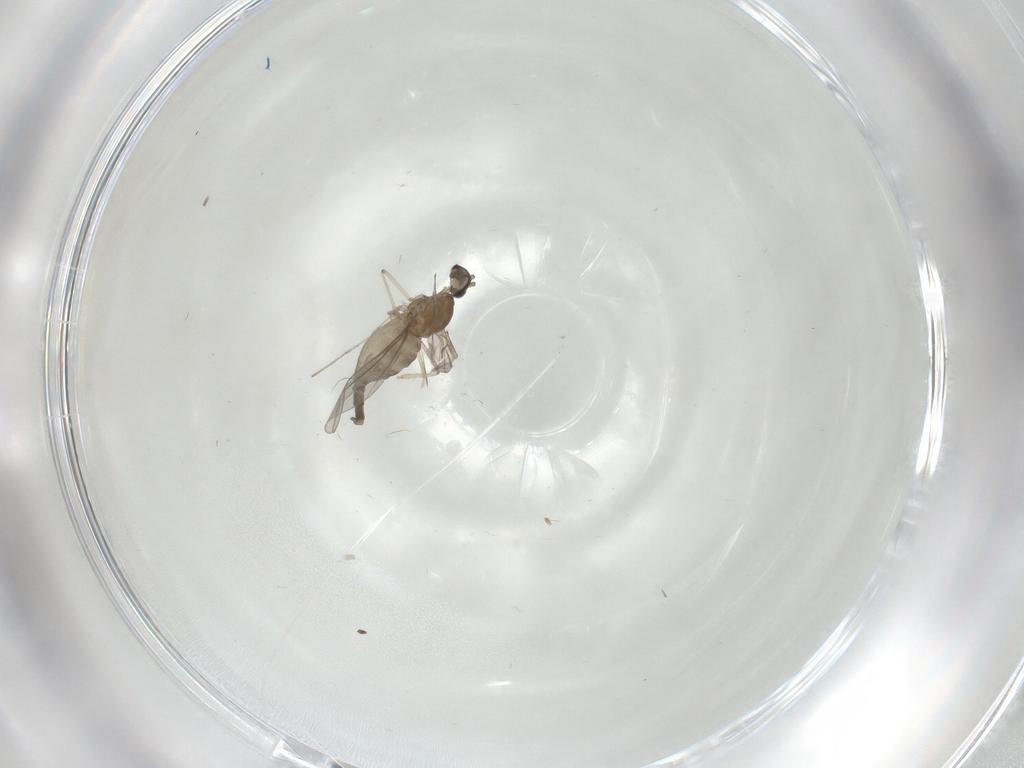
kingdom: Animalia
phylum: Arthropoda
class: Insecta
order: Diptera
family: Cecidomyiidae
